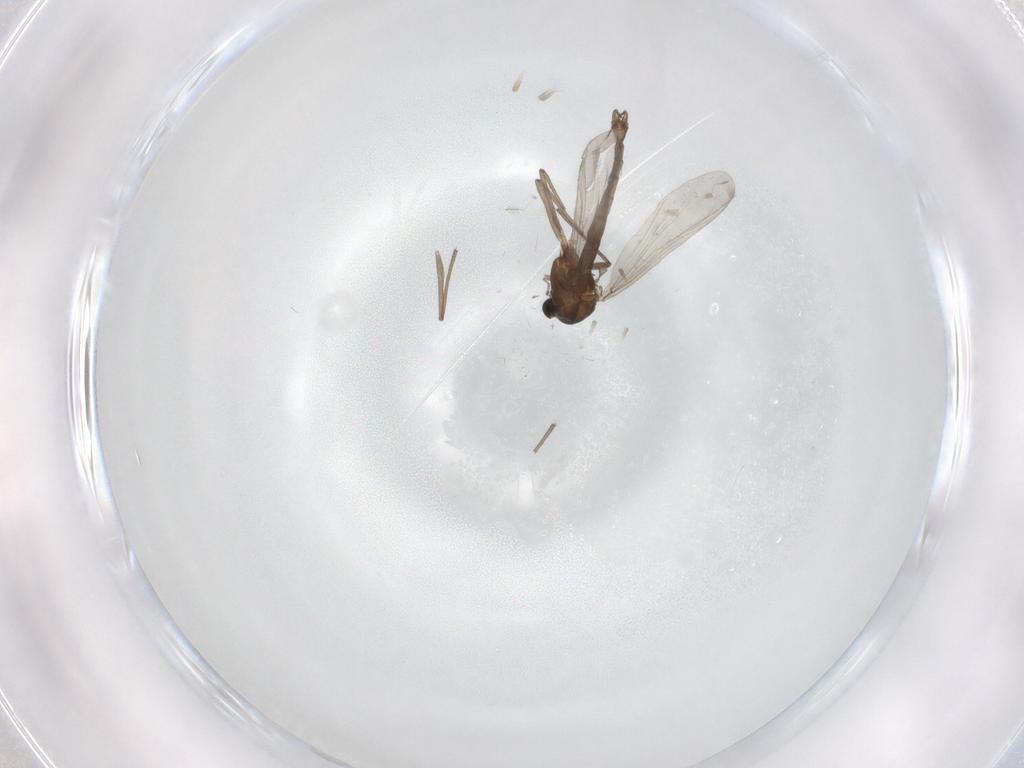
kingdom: Animalia
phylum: Arthropoda
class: Insecta
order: Diptera
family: Chironomidae
